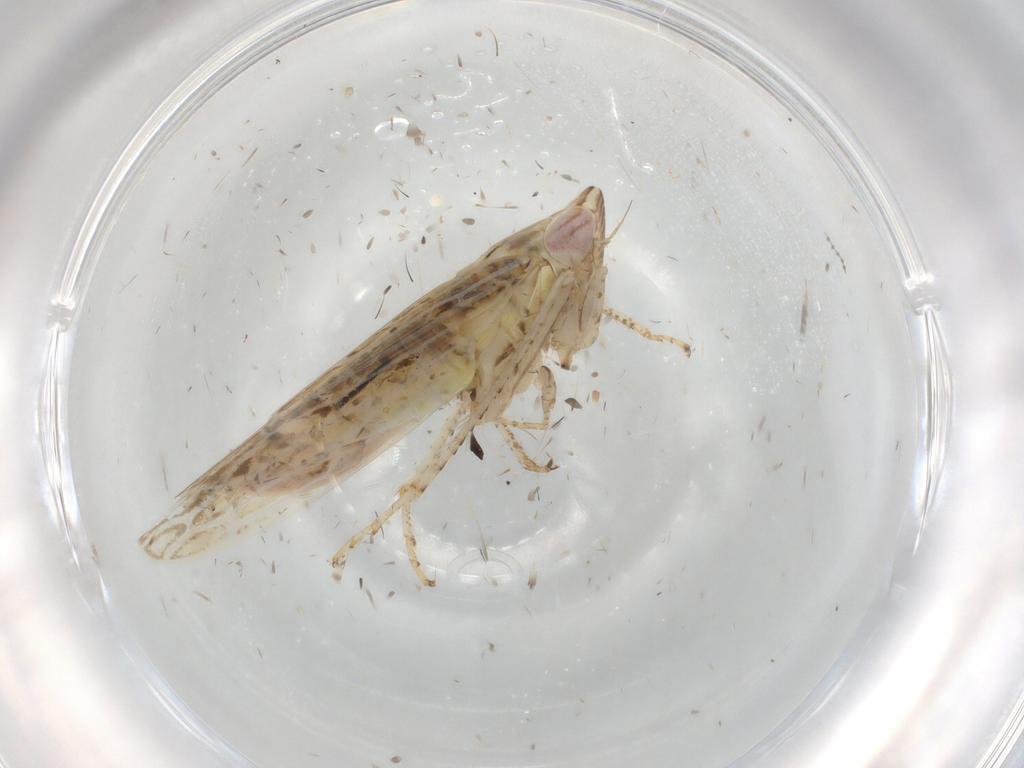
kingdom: Animalia
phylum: Arthropoda
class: Insecta
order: Hemiptera
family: Cicadellidae
